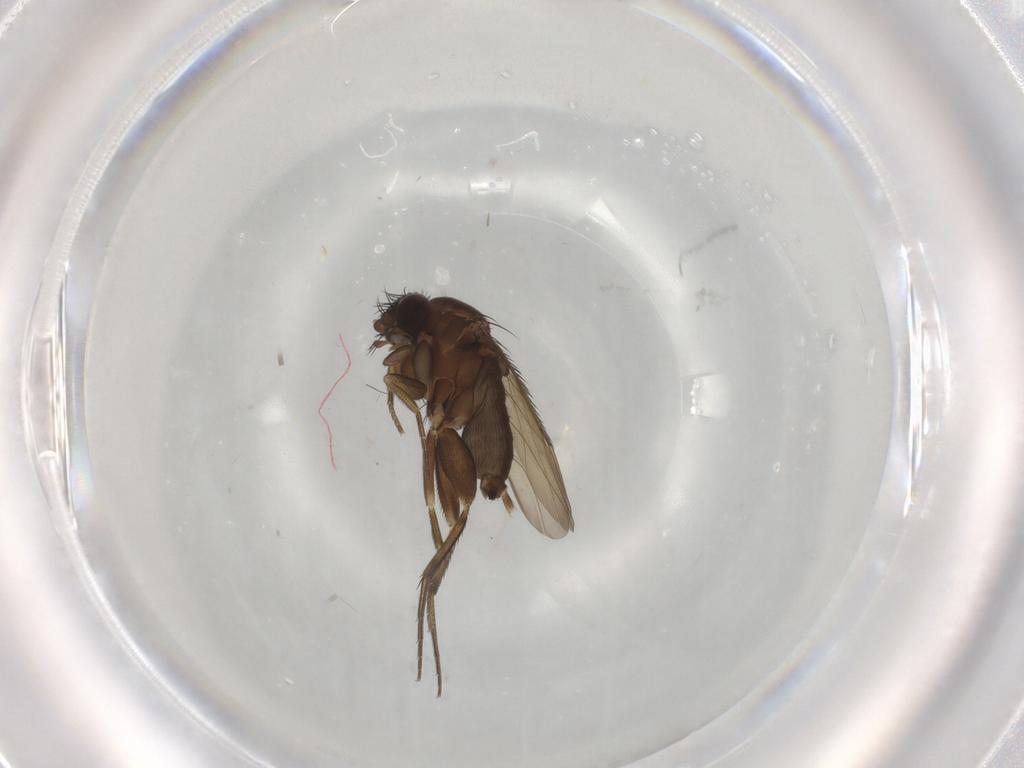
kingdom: Animalia
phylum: Arthropoda
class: Insecta
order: Diptera
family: Phoridae
